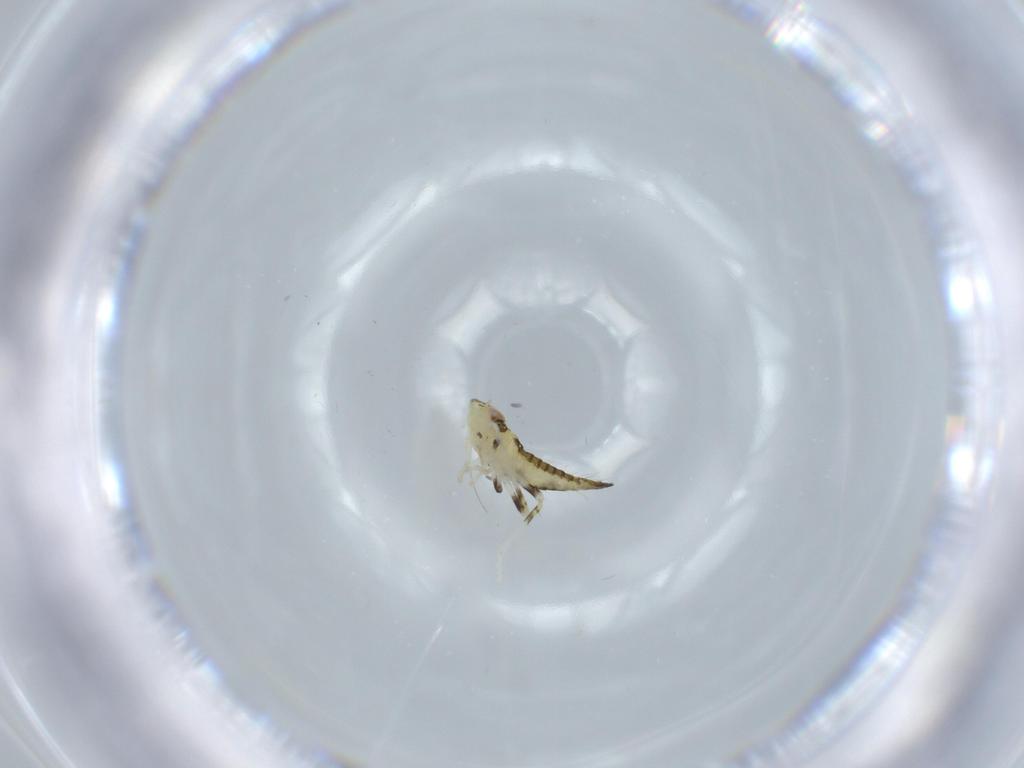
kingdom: Animalia
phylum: Arthropoda
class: Insecta
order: Hemiptera
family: Cicadellidae
